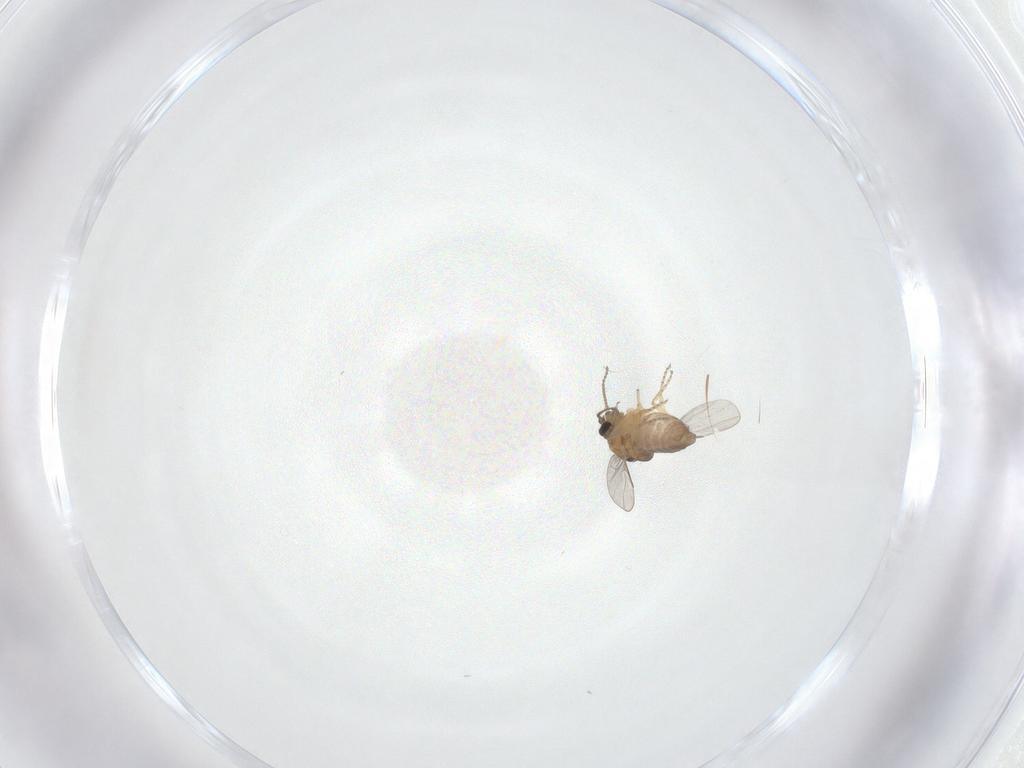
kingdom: Animalia
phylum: Arthropoda
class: Insecta
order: Diptera
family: Ceratopogonidae
